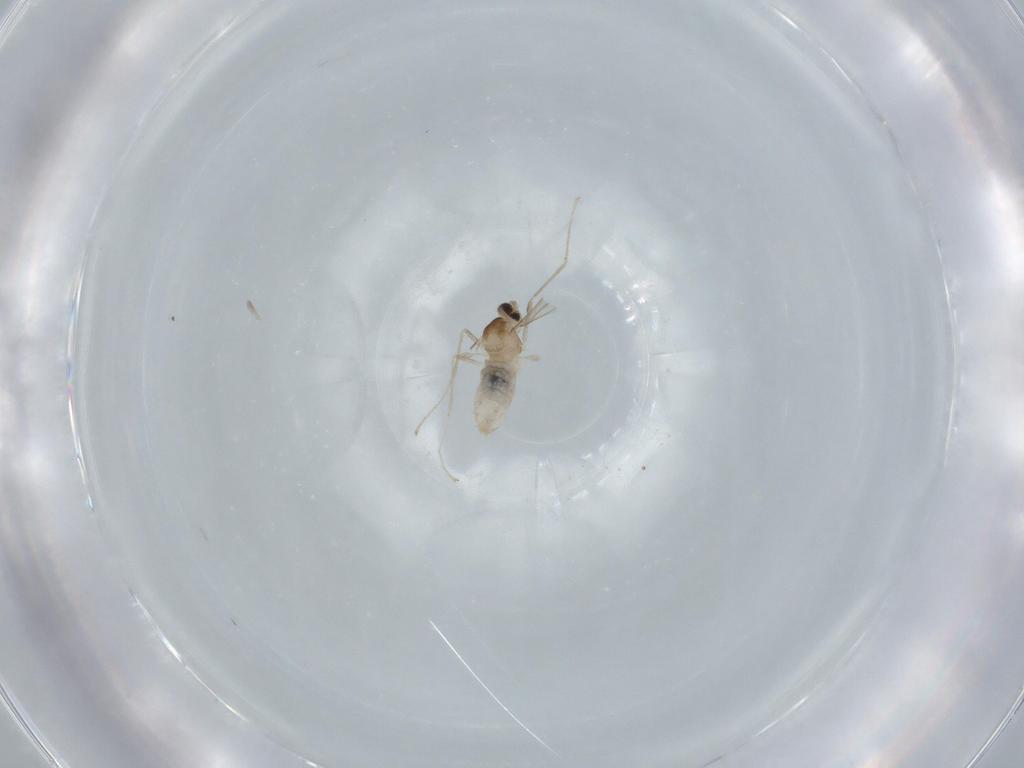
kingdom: Animalia
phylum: Arthropoda
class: Insecta
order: Diptera
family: Cecidomyiidae
